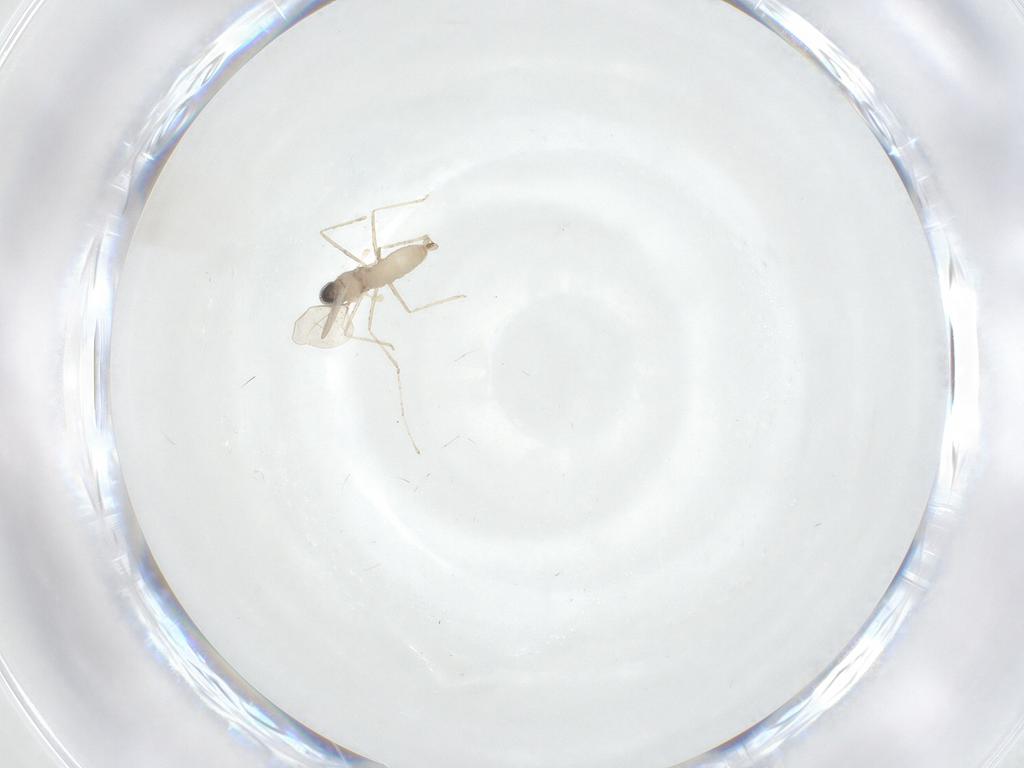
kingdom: Animalia
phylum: Arthropoda
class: Insecta
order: Diptera
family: Cecidomyiidae
